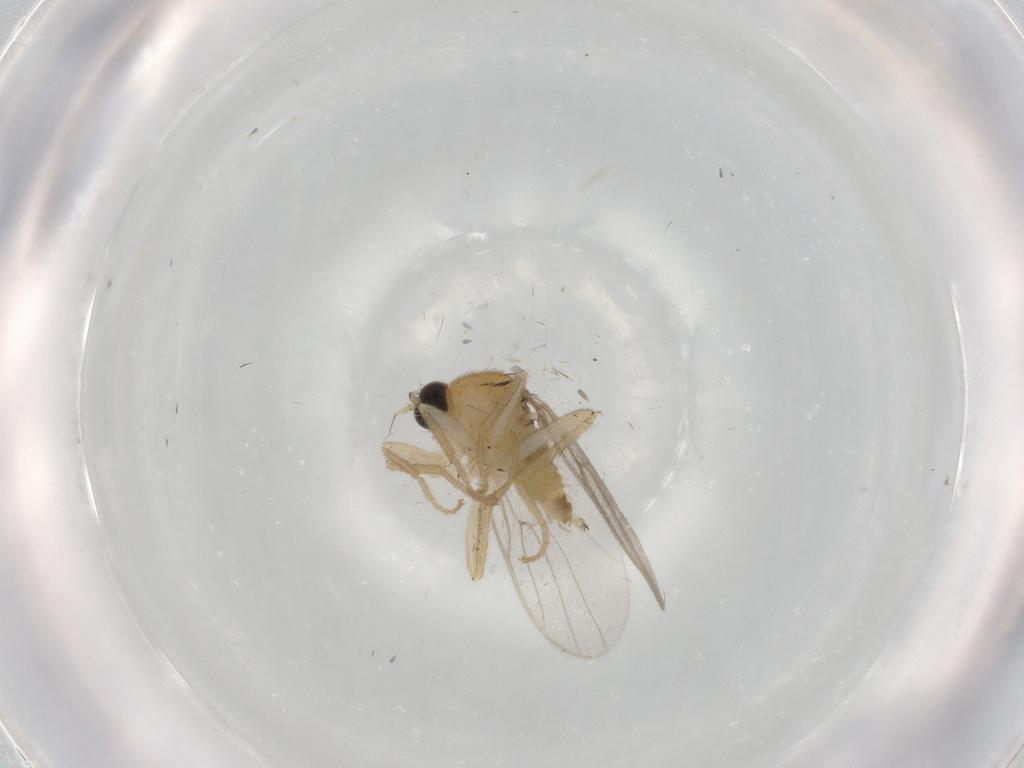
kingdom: Animalia
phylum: Arthropoda
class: Insecta
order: Diptera
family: Hybotidae
